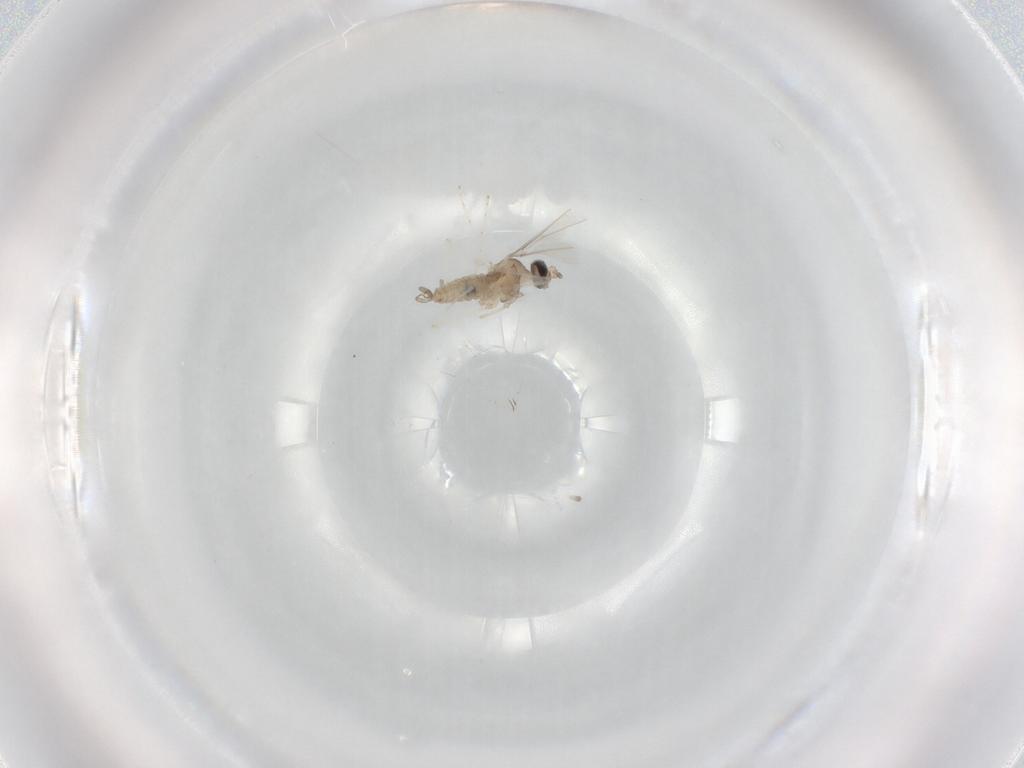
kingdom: Animalia
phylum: Arthropoda
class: Insecta
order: Diptera
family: Cecidomyiidae
